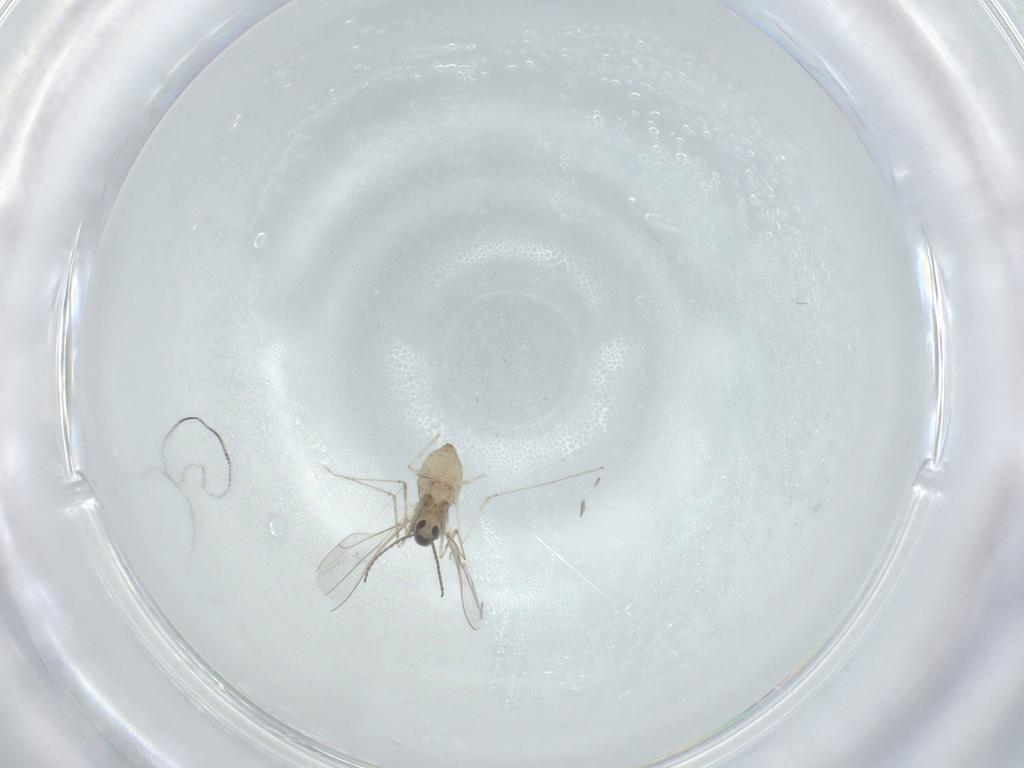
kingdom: Animalia
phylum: Arthropoda
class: Insecta
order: Diptera
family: Cecidomyiidae
